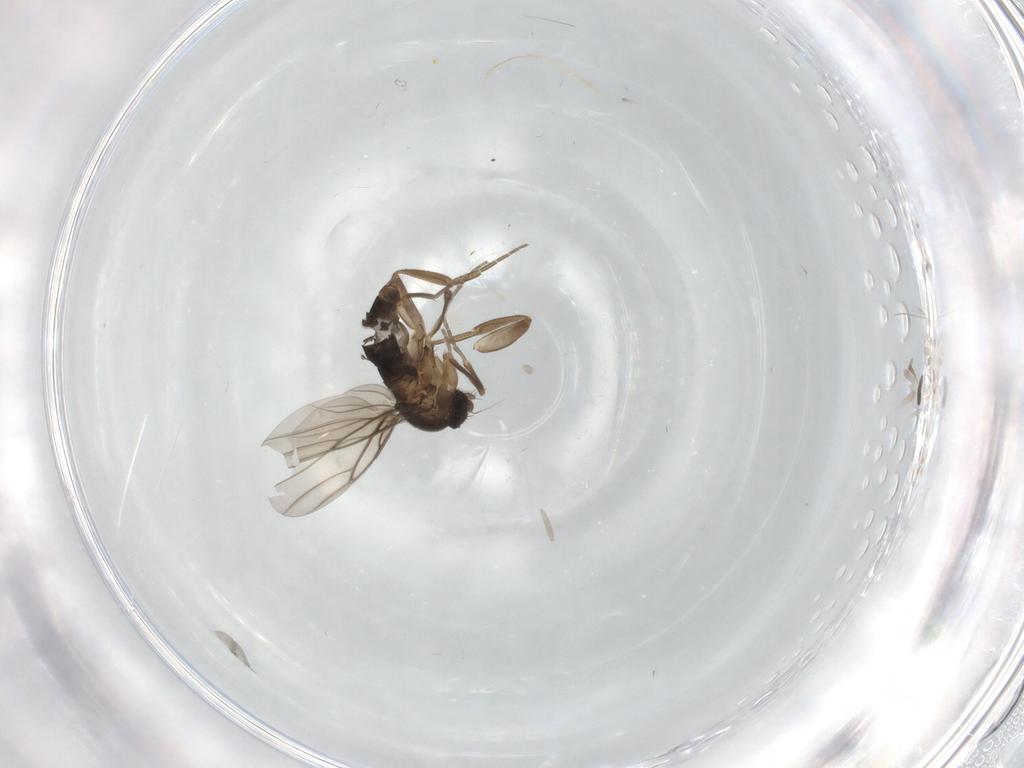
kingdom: Animalia
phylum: Arthropoda
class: Insecta
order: Diptera
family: Phoridae
